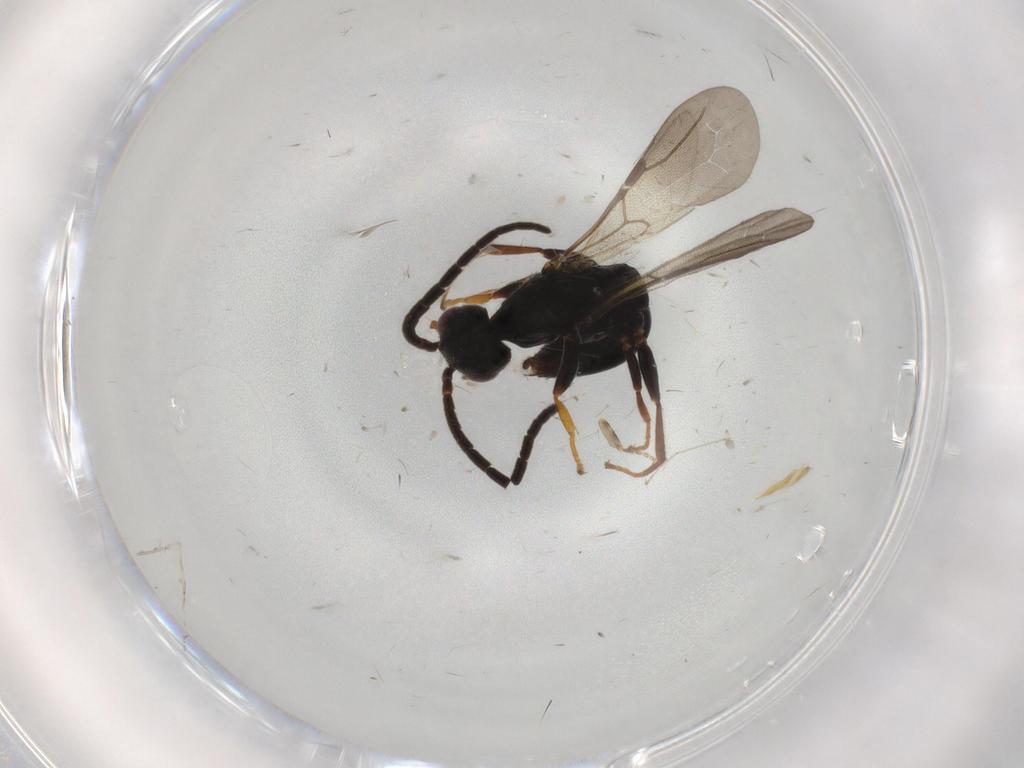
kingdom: Animalia
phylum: Arthropoda
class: Insecta
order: Hymenoptera
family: Bethylidae
